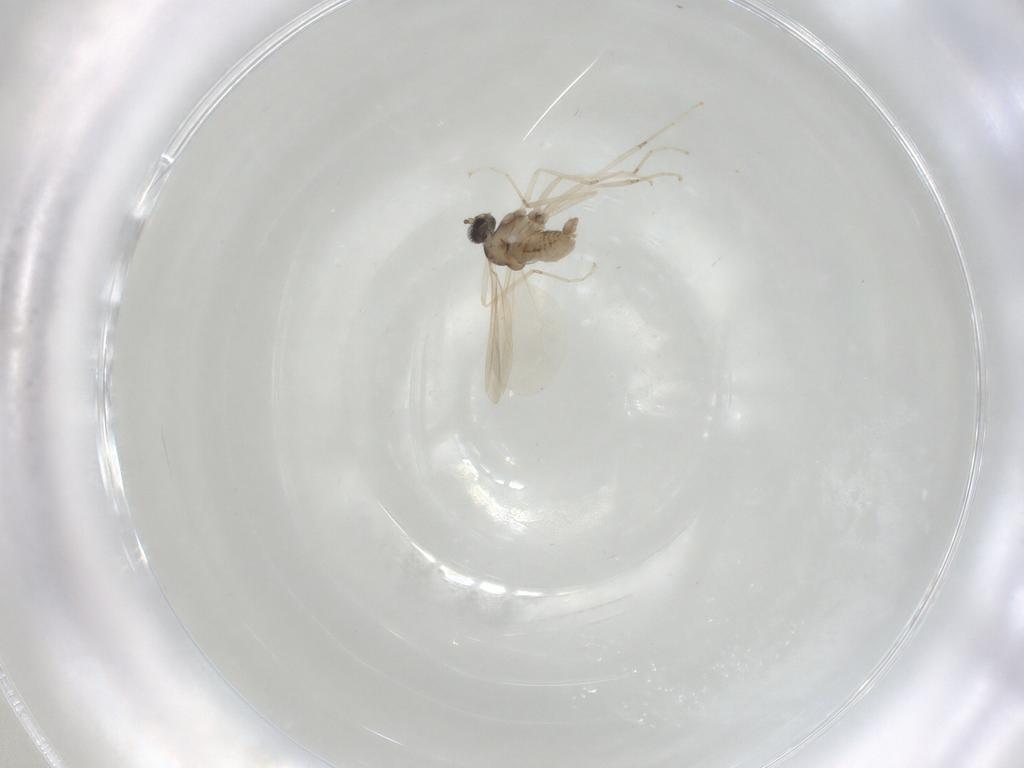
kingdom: Animalia
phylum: Arthropoda
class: Insecta
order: Diptera
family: Cecidomyiidae
